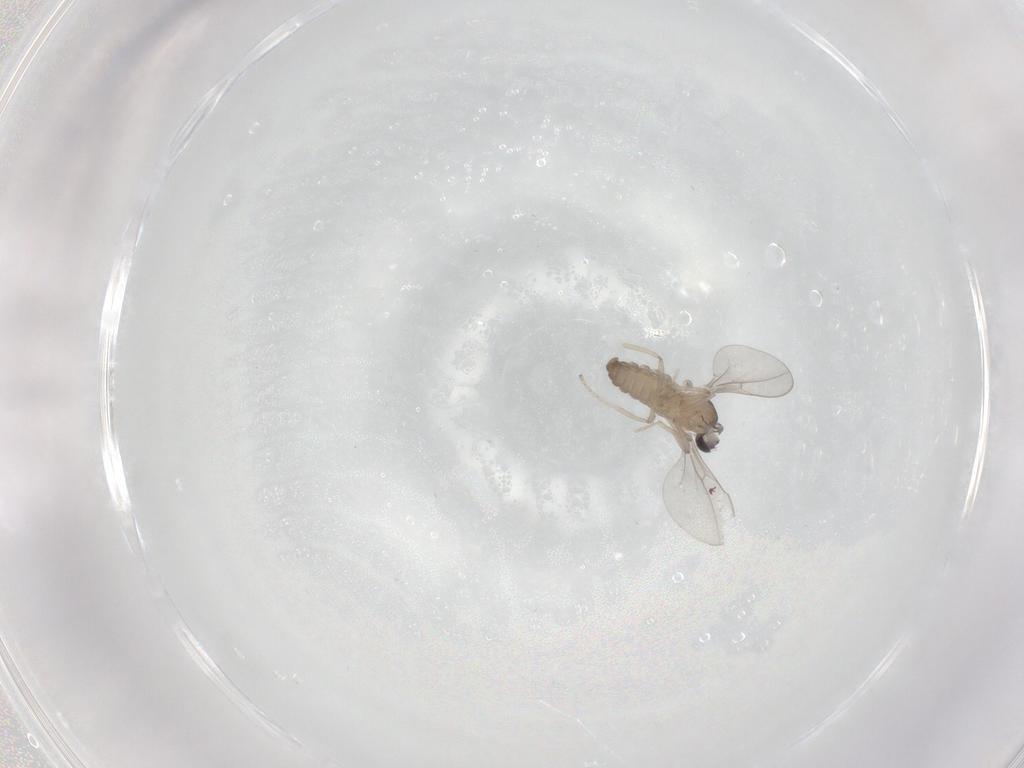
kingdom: Animalia
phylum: Arthropoda
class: Insecta
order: Diptera
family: Cecidomyiidae
